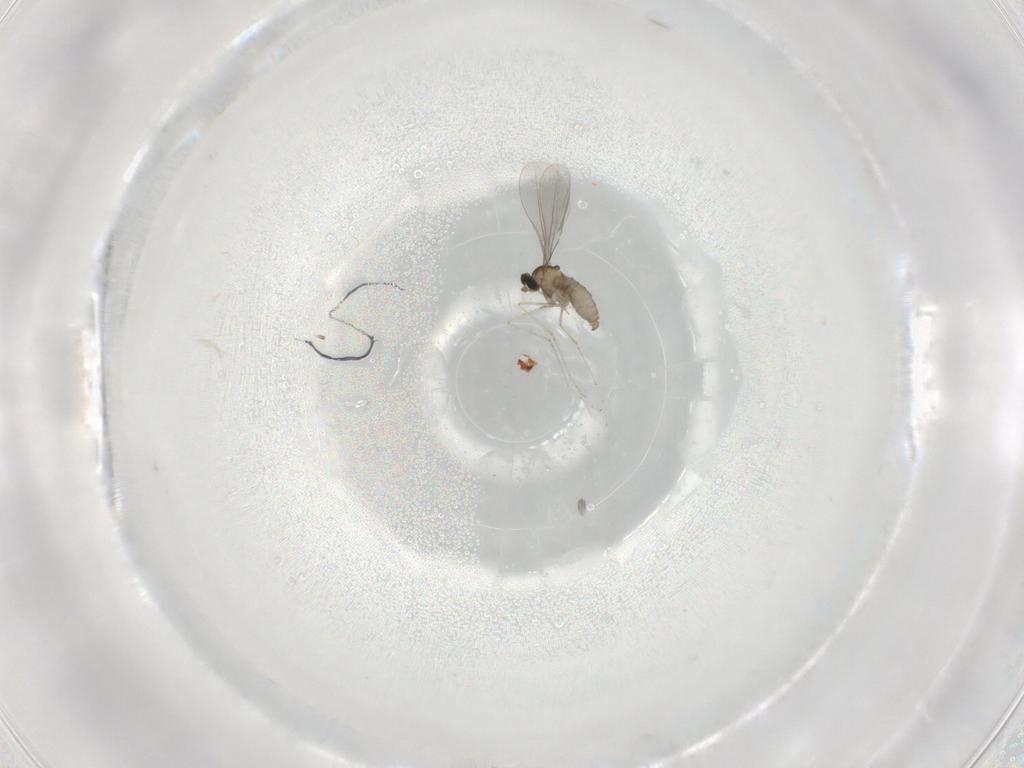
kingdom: Animalia
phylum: Arthropoda
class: Insecta
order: Diptera
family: Cecidomyiidae
